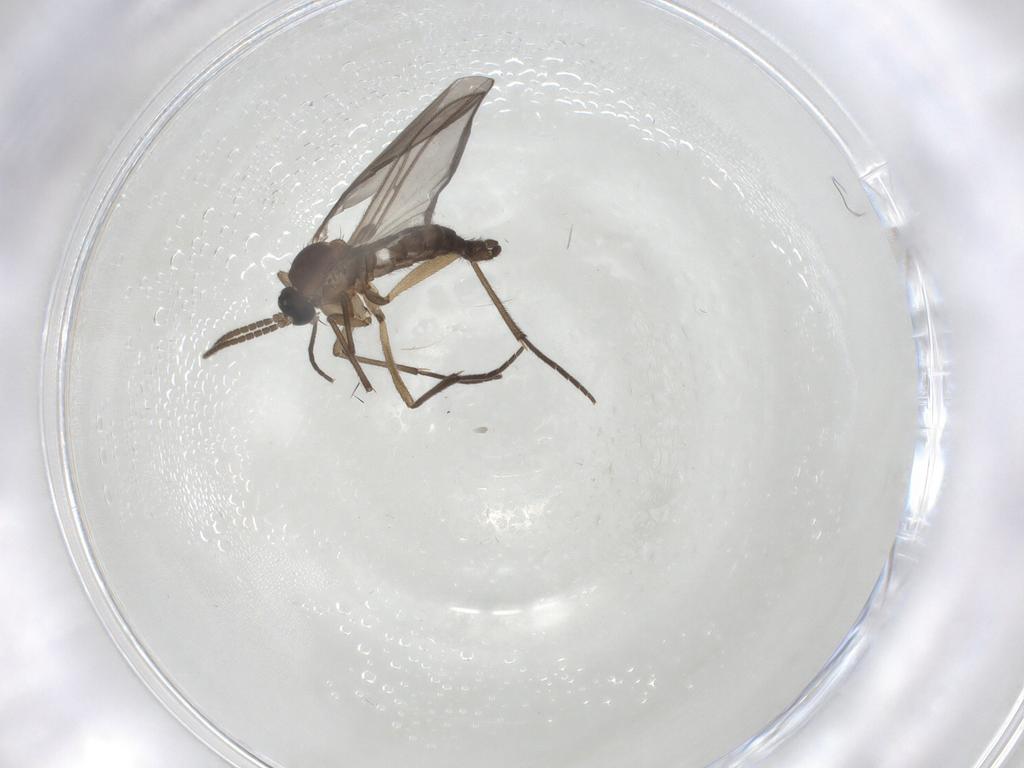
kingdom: Animalia
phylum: Arthropoda
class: Insecta
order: Diptera
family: Sciaridae
